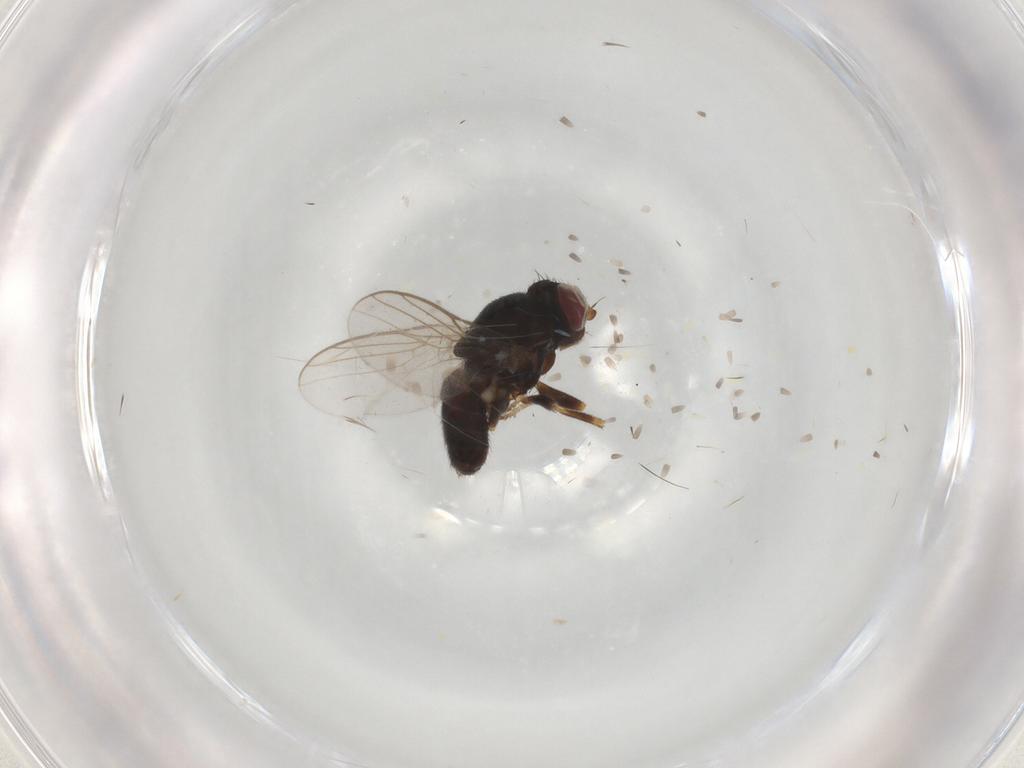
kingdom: Animalia
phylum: Arthropoda
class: Insecta
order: Diptera
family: Chloropidae
